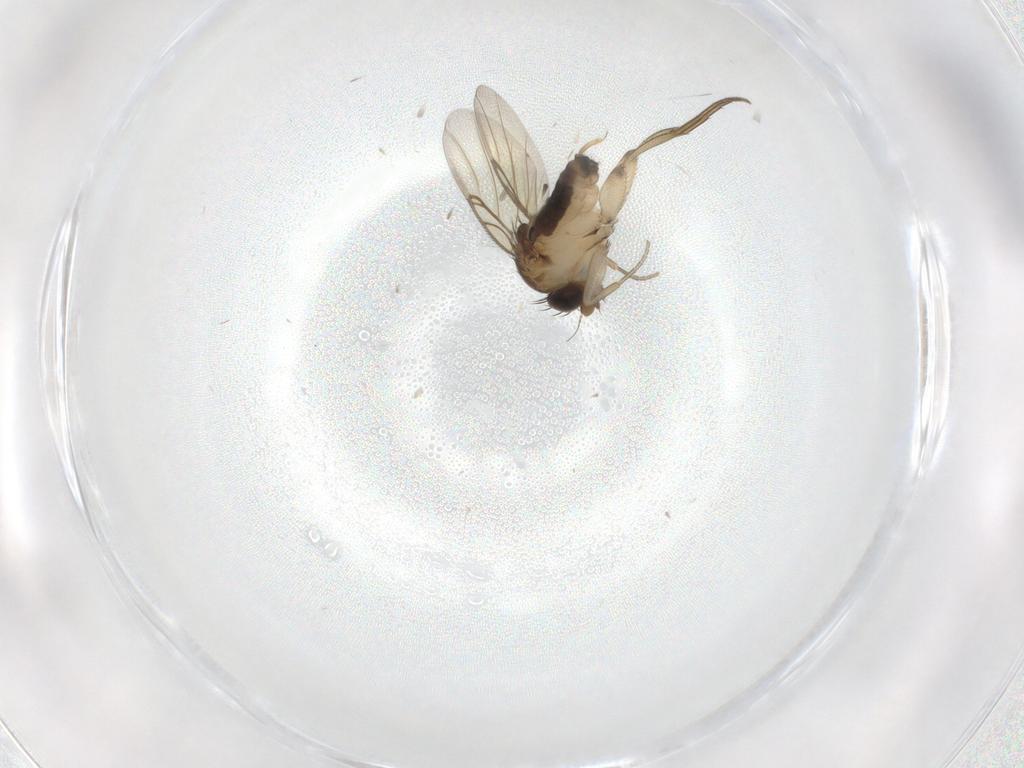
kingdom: Animalia
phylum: Arthropoda
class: Insecta
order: Diptera
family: Phoridae
